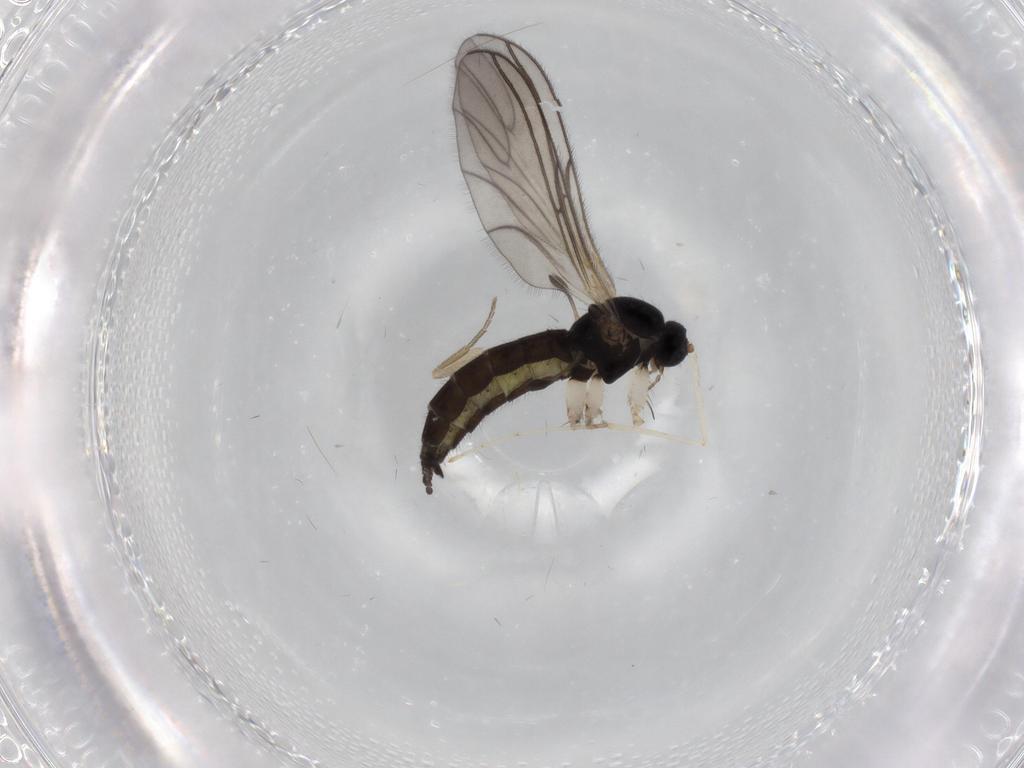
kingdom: Animalia
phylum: Arthropoda
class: Insecta
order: Diptera
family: Sciaridae
